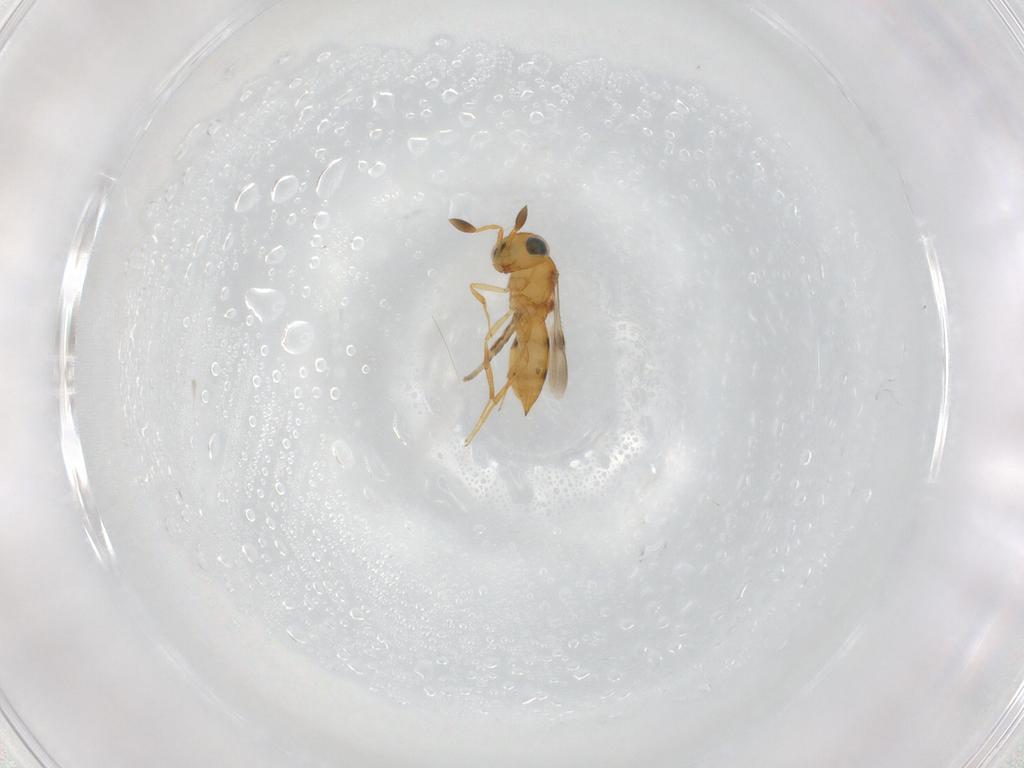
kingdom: Animalia
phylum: Arthropoda
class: Insecta
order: Hymenoptera
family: Scelionidae
